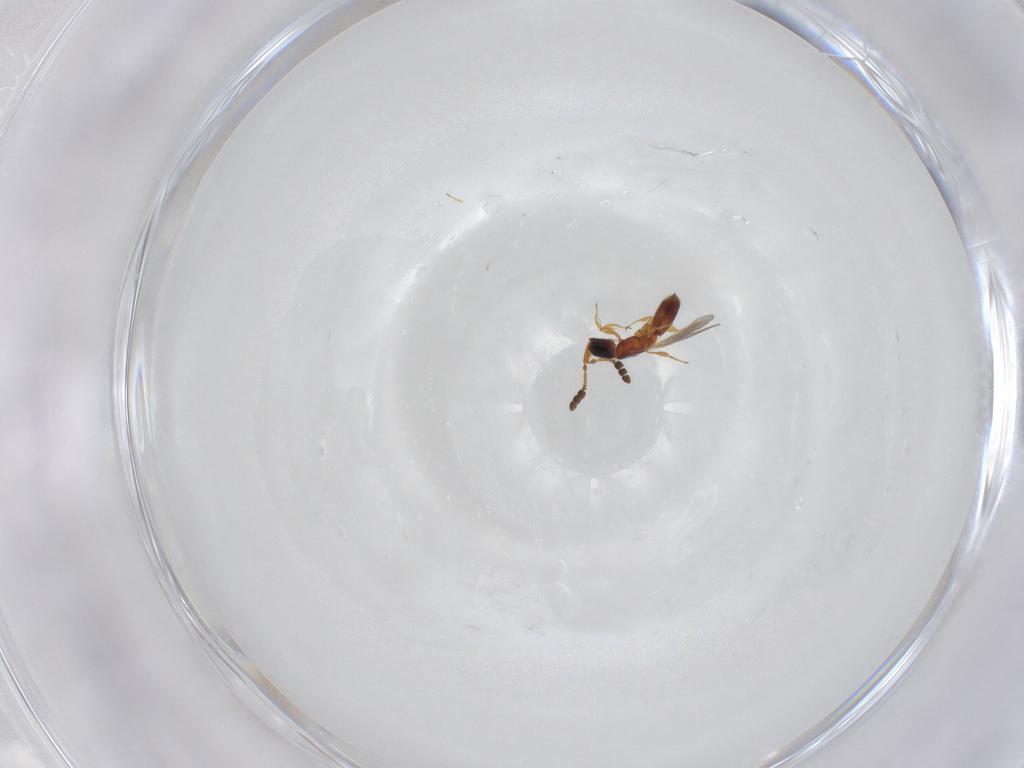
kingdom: Animalia
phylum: Arthropoda
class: Insecta
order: Hymenoptera
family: Diapriidae
